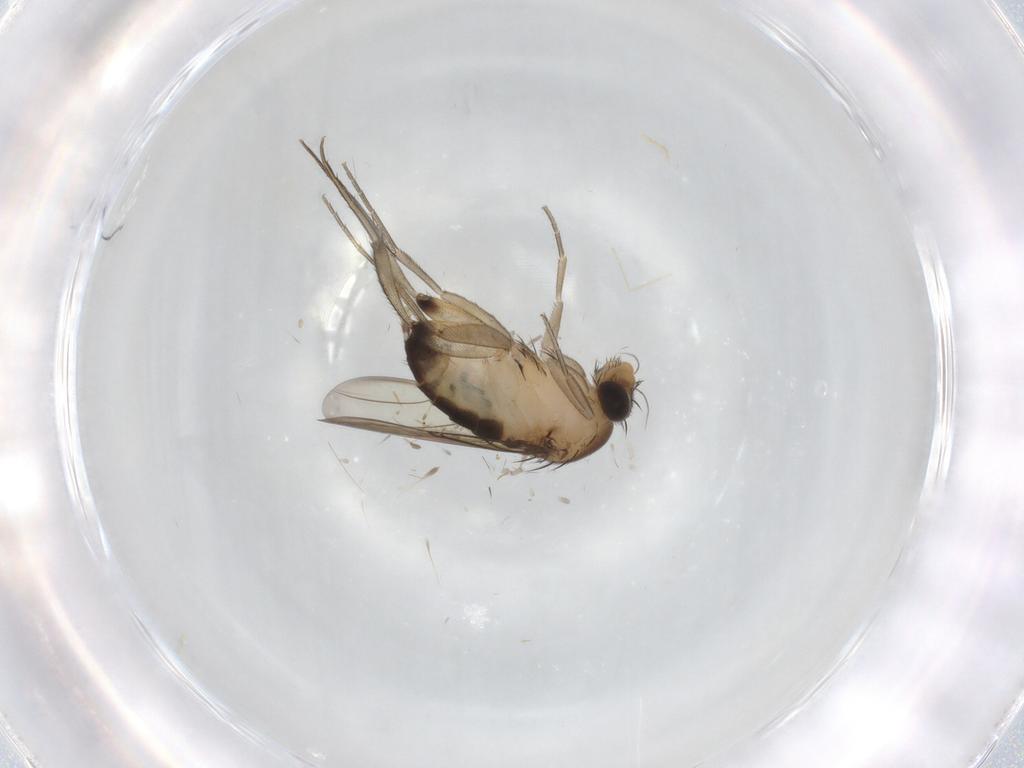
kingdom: Animalia
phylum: Arthropoda
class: Insecta
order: Diptera
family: Phoridae
